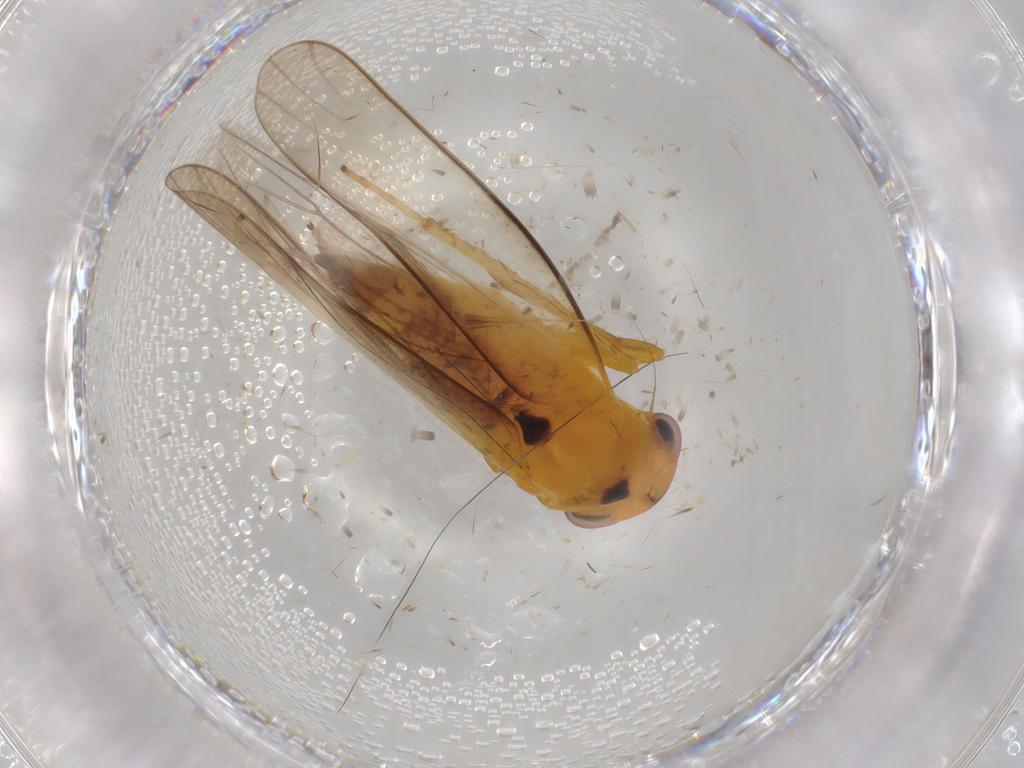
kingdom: Animalia
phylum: Arthropoda
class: Insecta
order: Hemiptera
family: Cicadellidae
